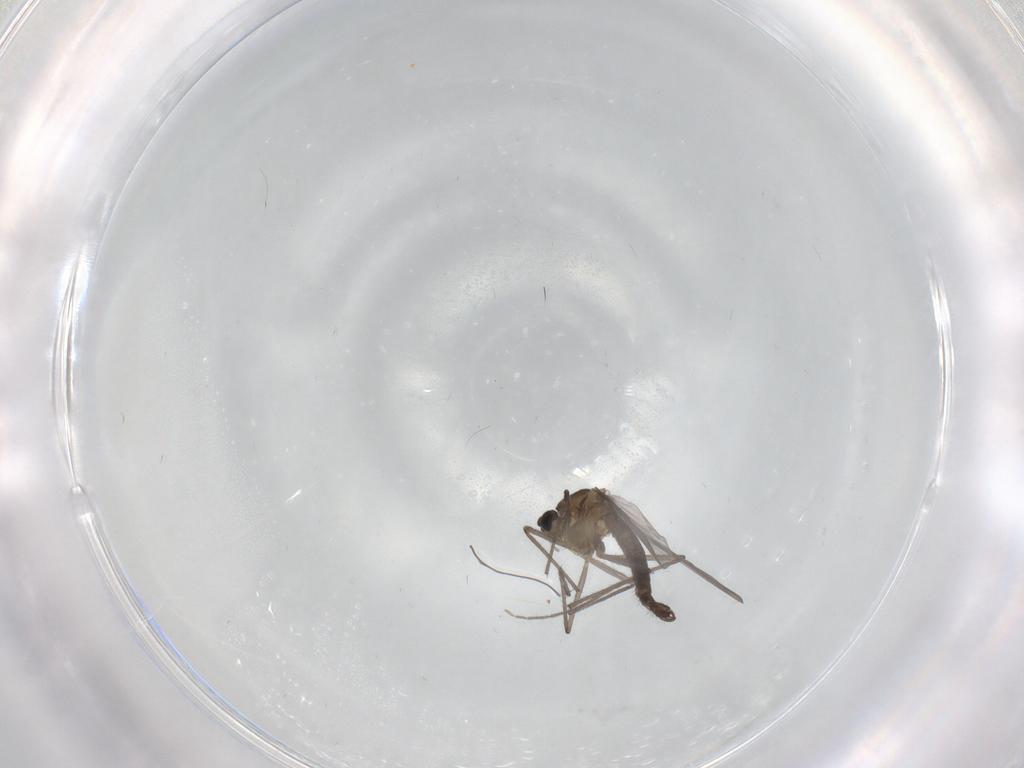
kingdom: Animalia
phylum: Arthropoda
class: Insecta
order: Diptera
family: Chironomidae
